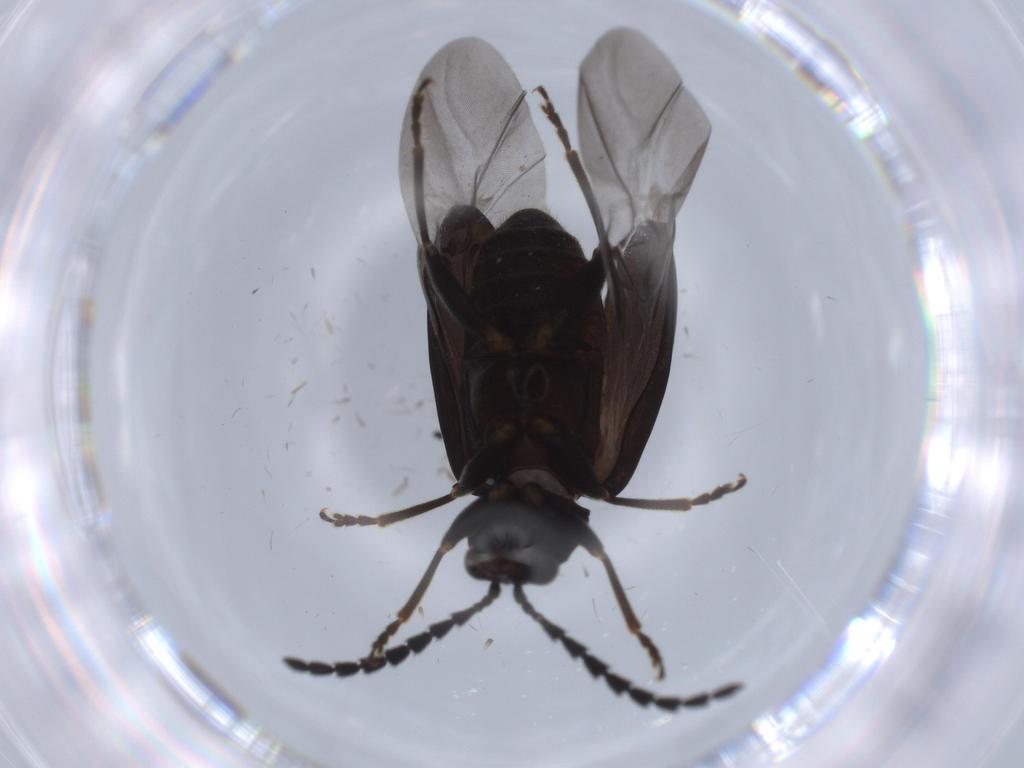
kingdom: Animalia
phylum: Arthropoda
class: Insecta
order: Coleoptera
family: Chrysomelidae
